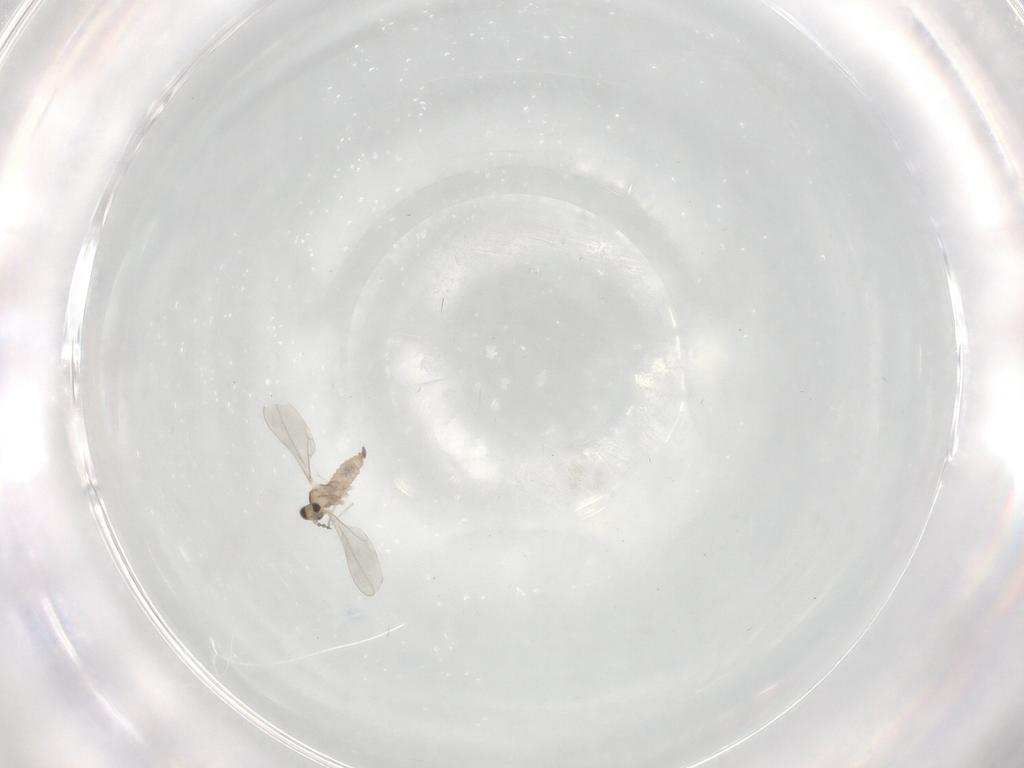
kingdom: Animalia
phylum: Arthropoda
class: Insecta
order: Diptera
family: Cecidomyiidae
